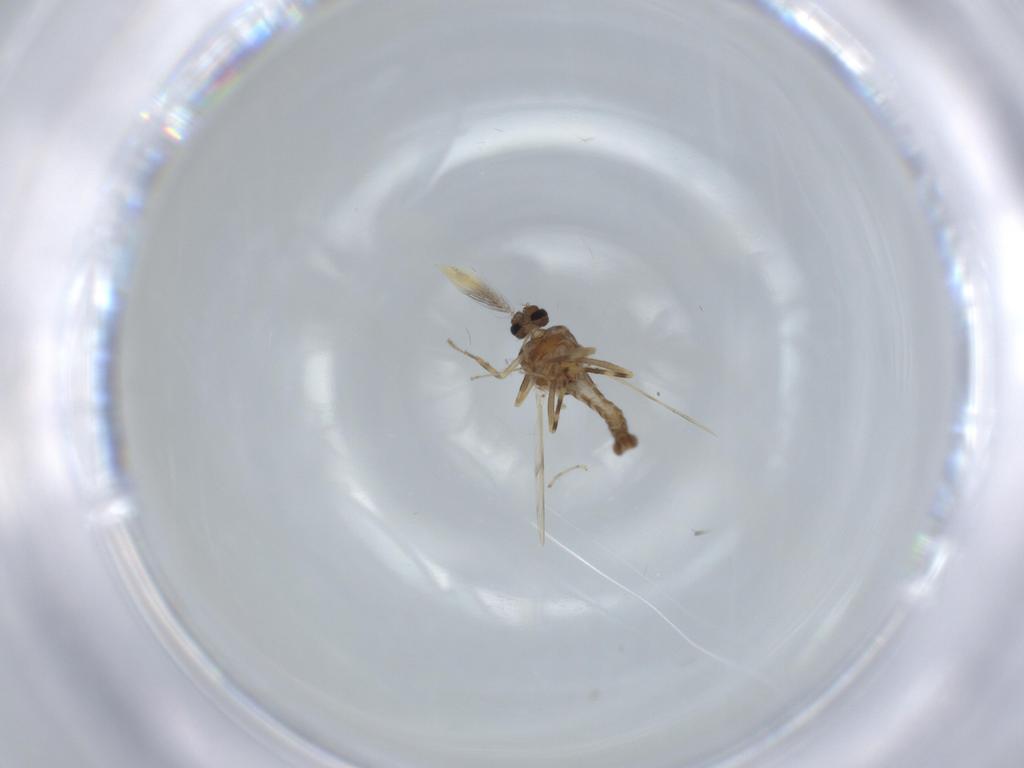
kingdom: Animalia
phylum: Arthropoda
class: Insecta
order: Diptera
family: Ceratopogonidae
